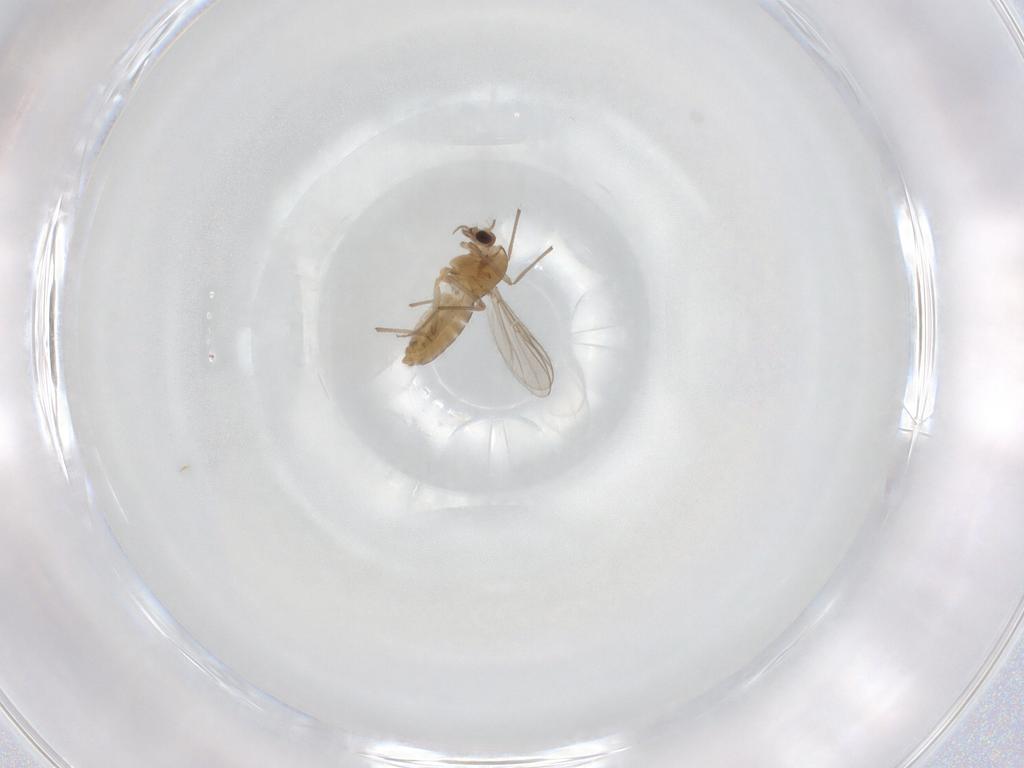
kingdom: Animalia
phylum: Arthropoda
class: Insecta
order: Diptera
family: Chironomidae
